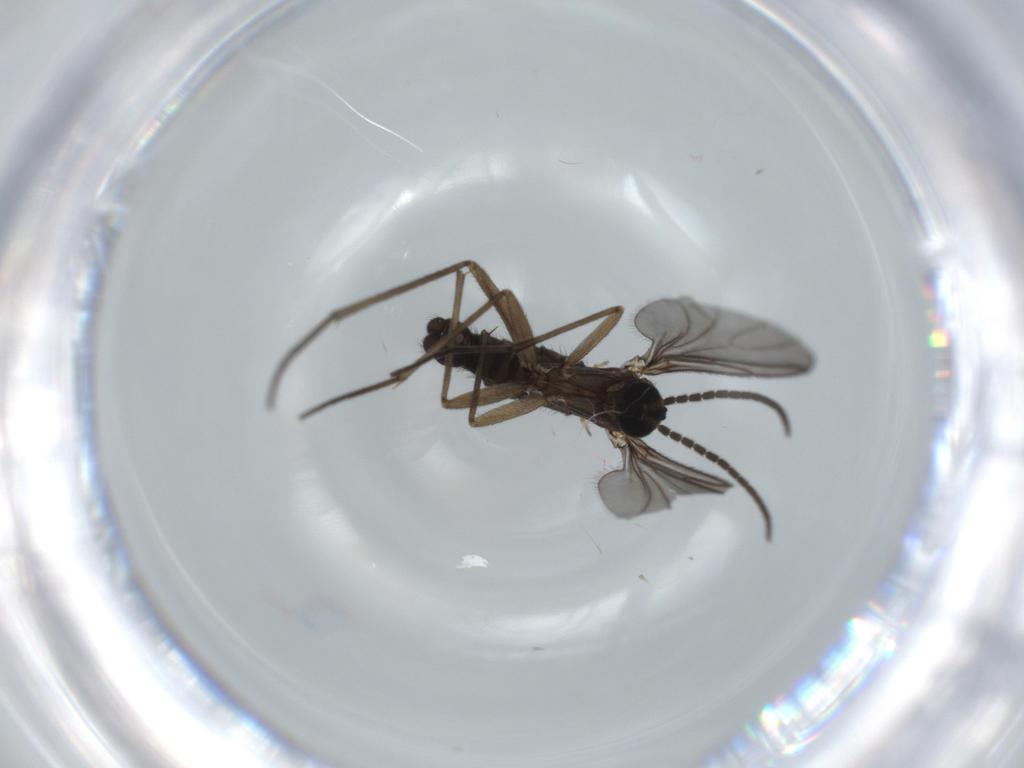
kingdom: Animalia
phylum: Arthropoda
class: Insecta
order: Diptera
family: Sciaridae
